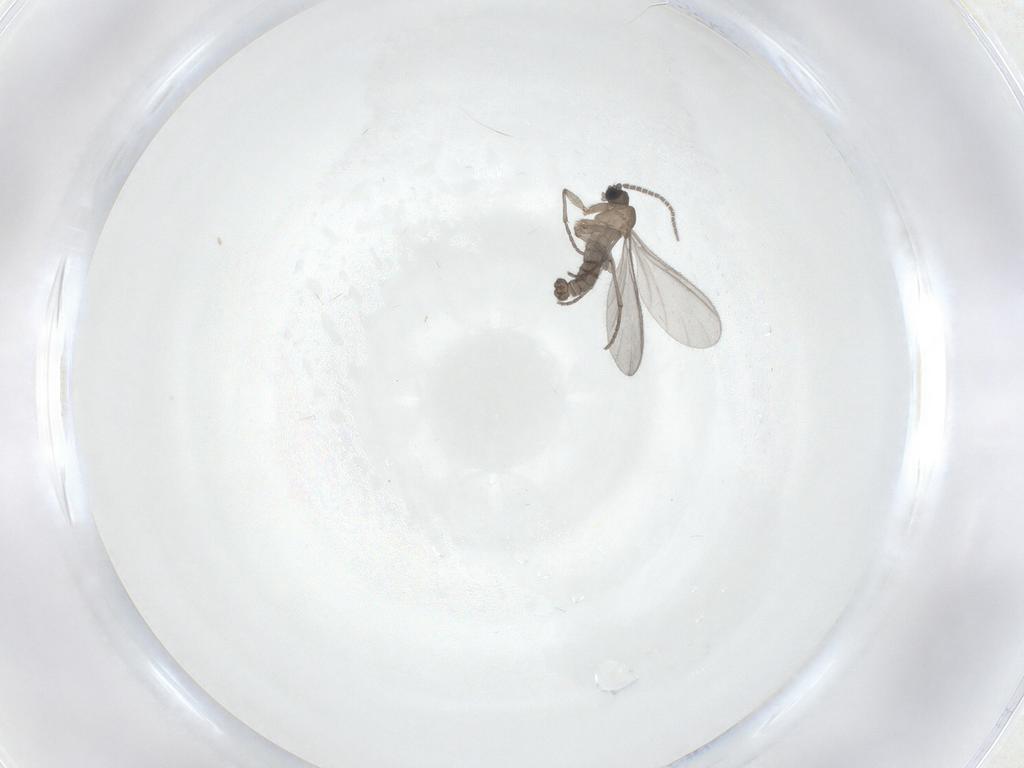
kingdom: Animalia
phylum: Arthropoda
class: Insecta
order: Diptera
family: Sciaridae
